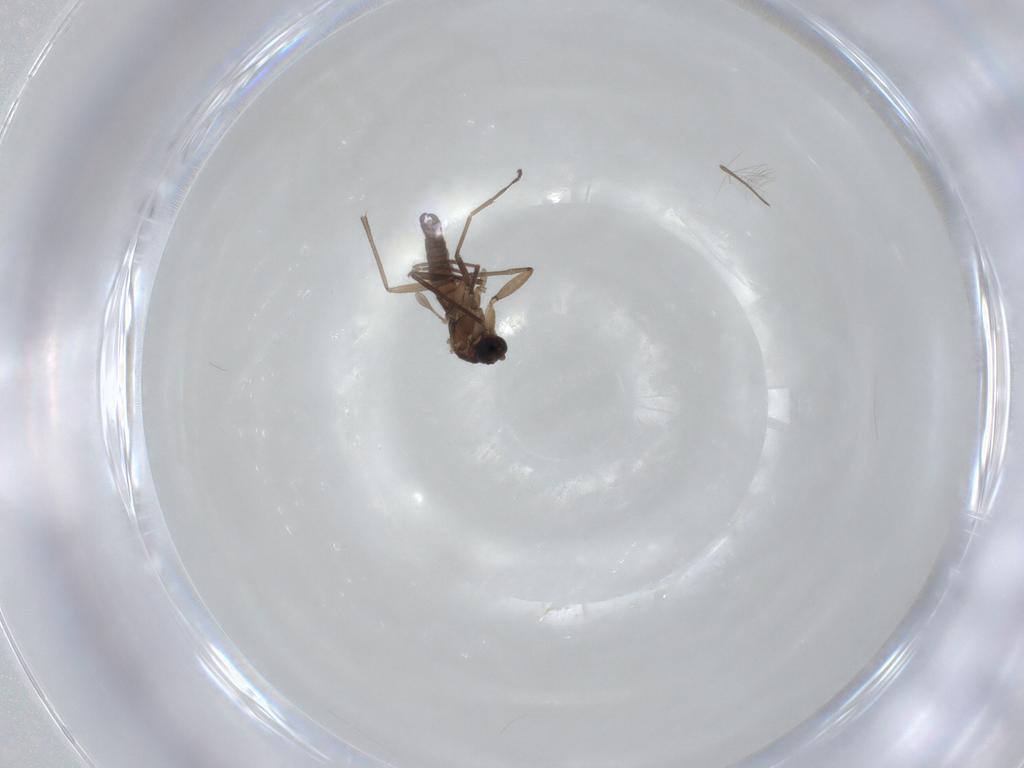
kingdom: Animalia
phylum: Arthropoda
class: Insecta
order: Diptera
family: Sciaridae
